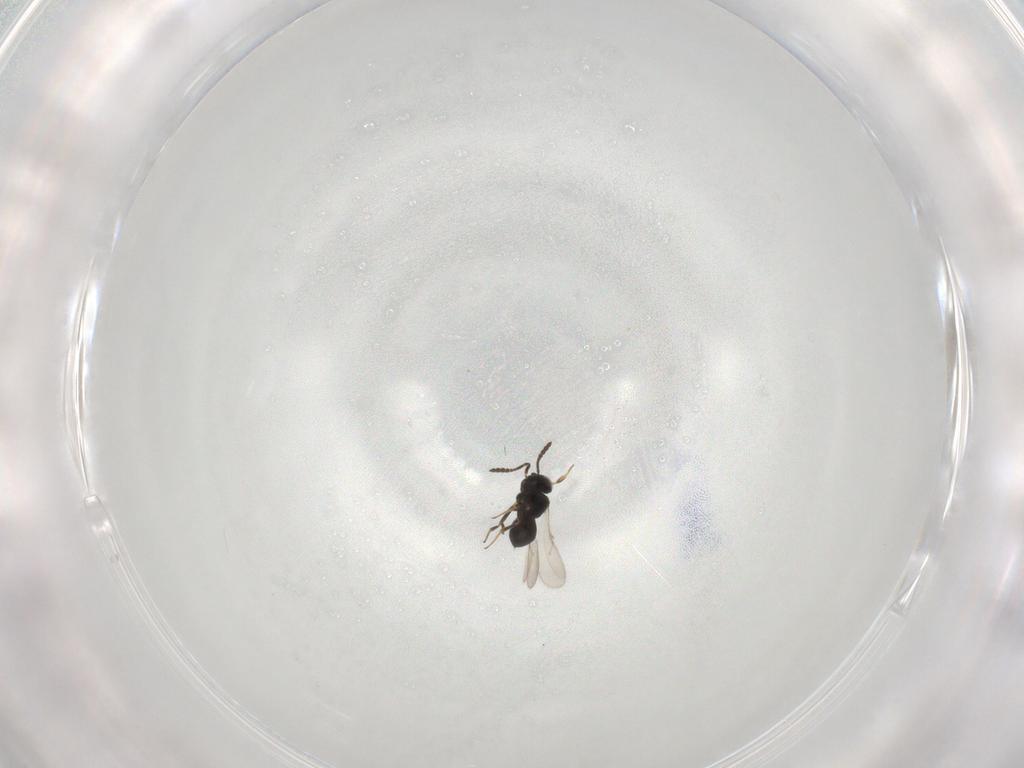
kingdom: Animalia
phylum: Arthropoda
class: Insecta
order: Hymenoptera
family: Scelionidae
